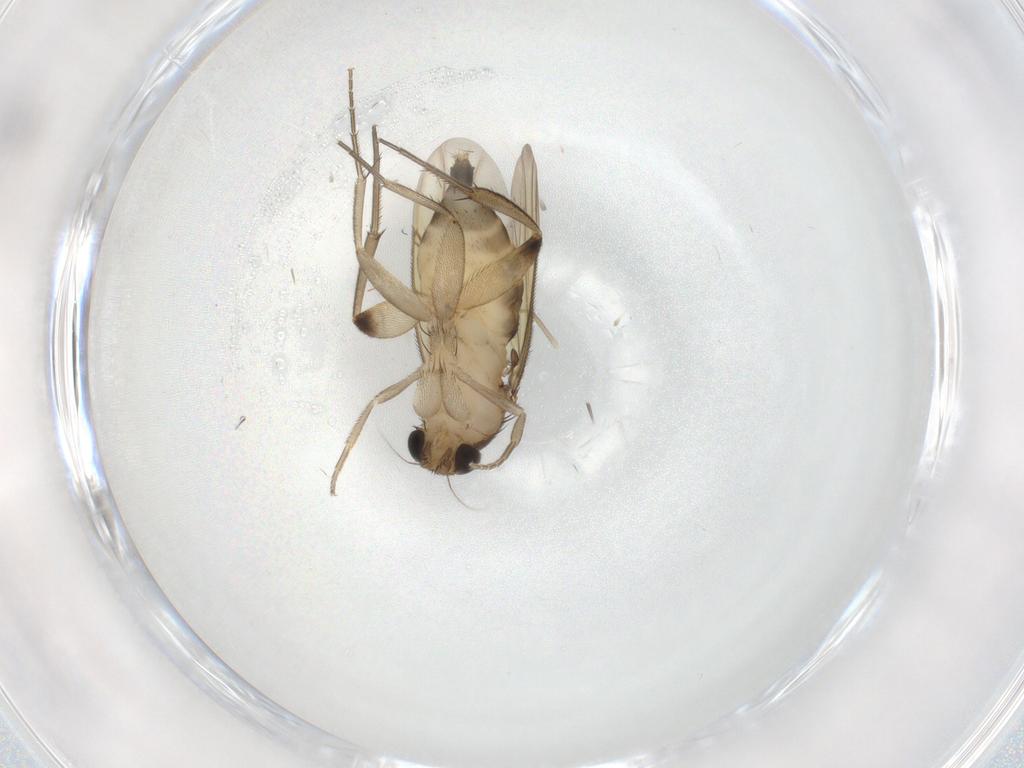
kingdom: Animalia
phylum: Arthropoda
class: Insecta
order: Diptera
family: Phoridae
